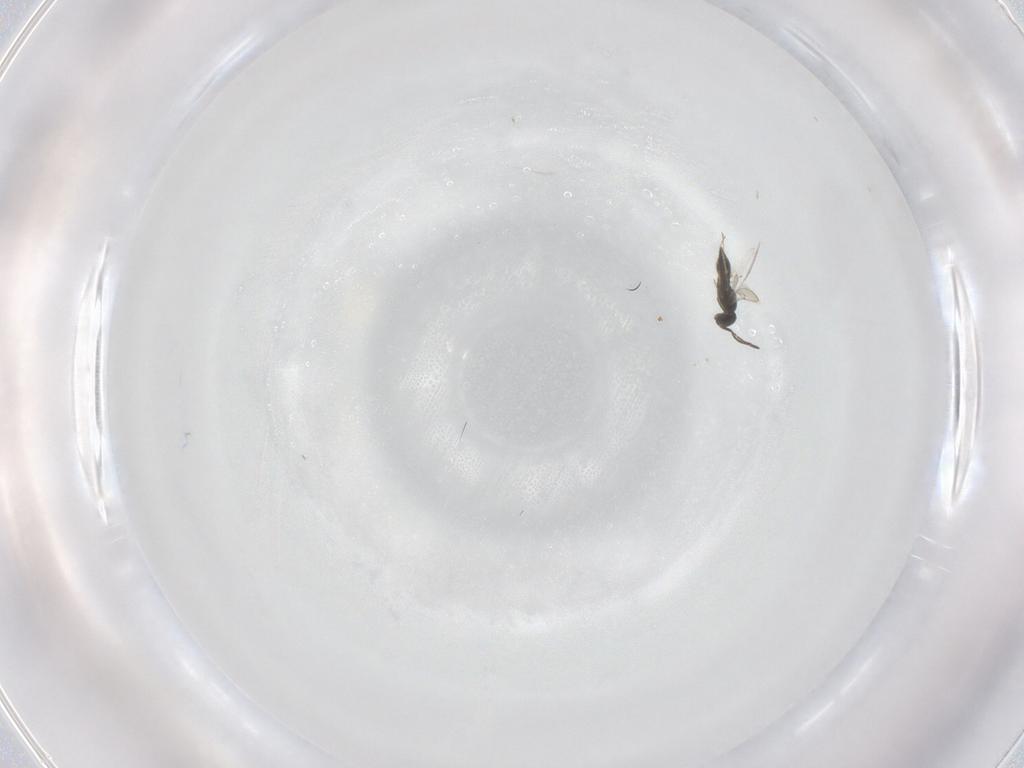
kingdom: Animalia
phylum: Arthropoda
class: Insecta
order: Hymenoptera
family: Scelionidae
